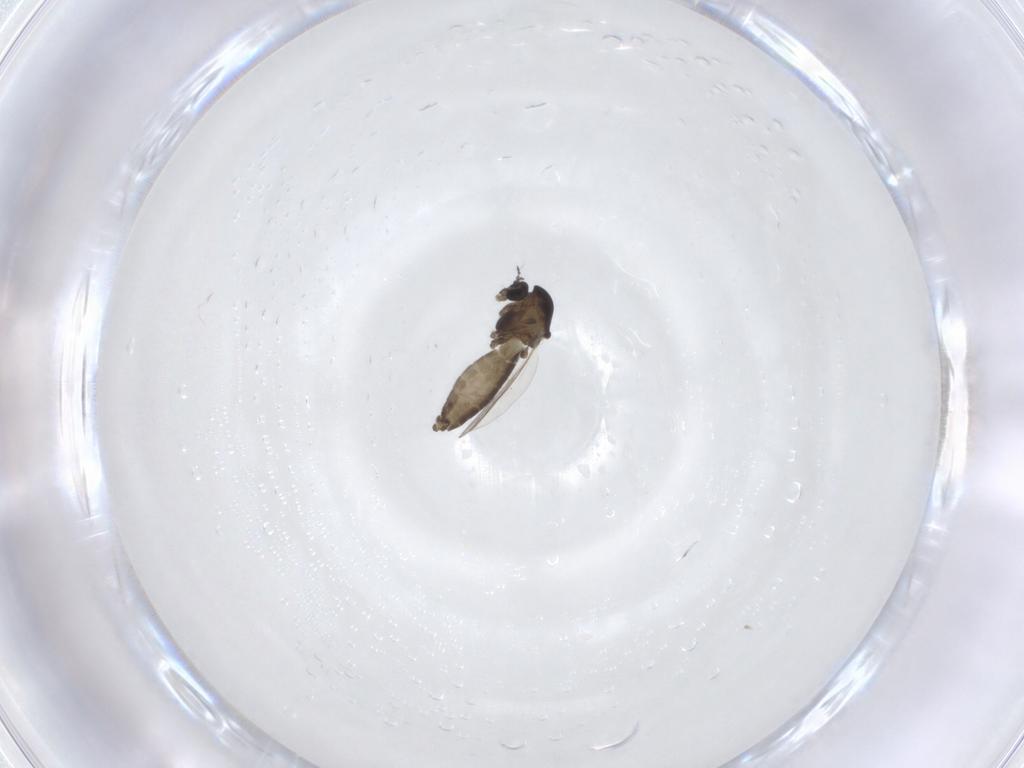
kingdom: Animalia
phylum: Arthropoda
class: Insecta
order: Diptera
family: Chironomidae
